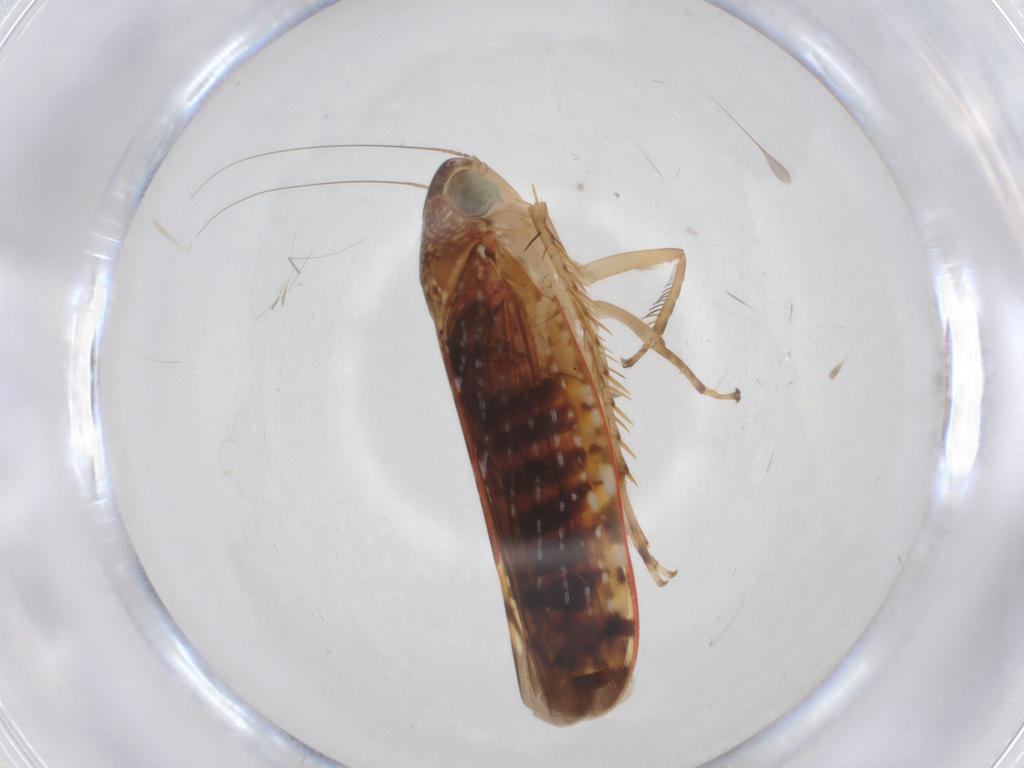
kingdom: Animalia
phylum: Arthropoda
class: Insecta
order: Hemiptera
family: Cicadellidae
